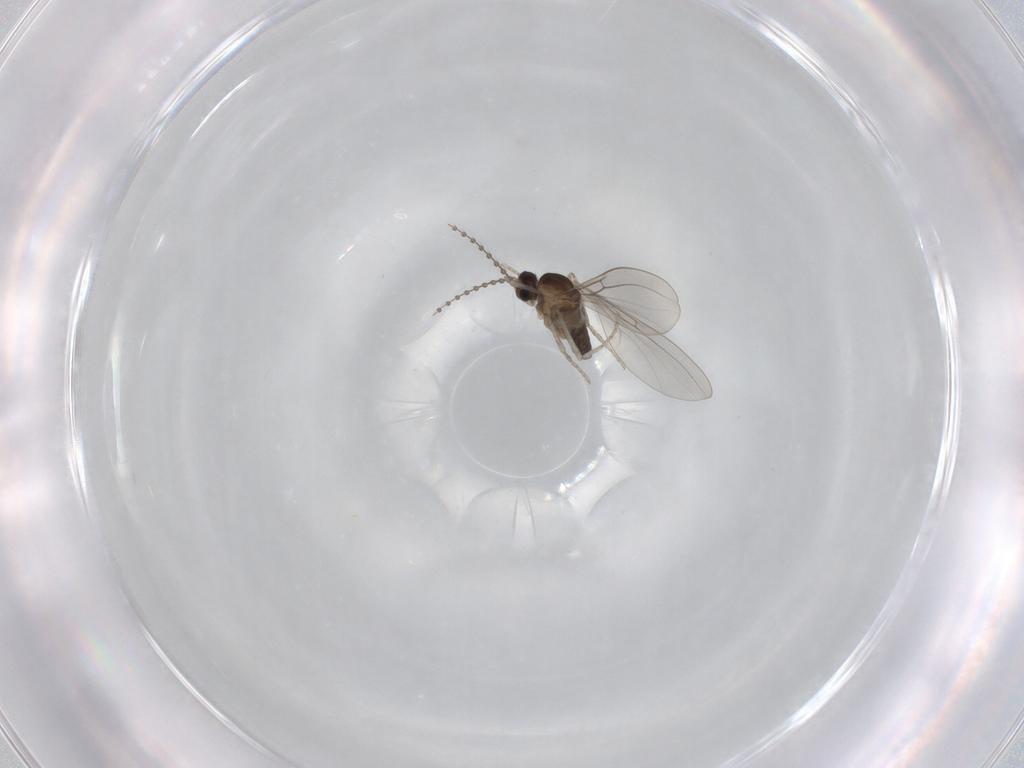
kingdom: Animalia
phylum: Arthropoda
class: Insecta
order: Diptera
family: Cecidomyiidae
